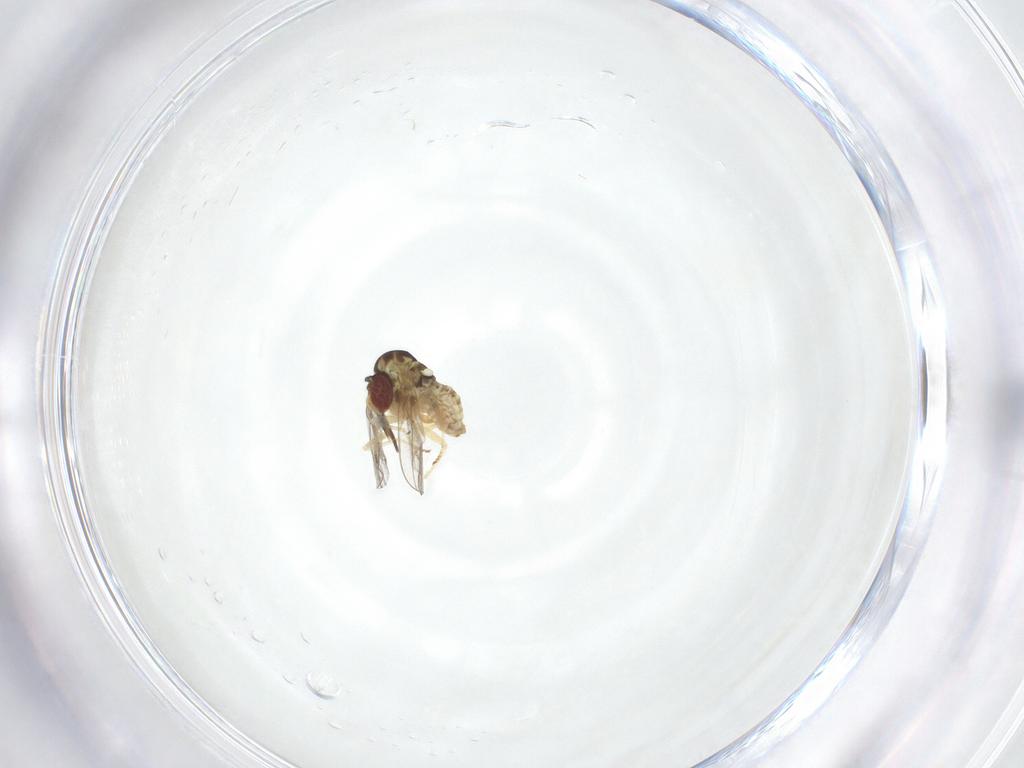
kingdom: Animalia
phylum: Arthropoda
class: Insecta
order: Diptera
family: Mythicomyiidae
